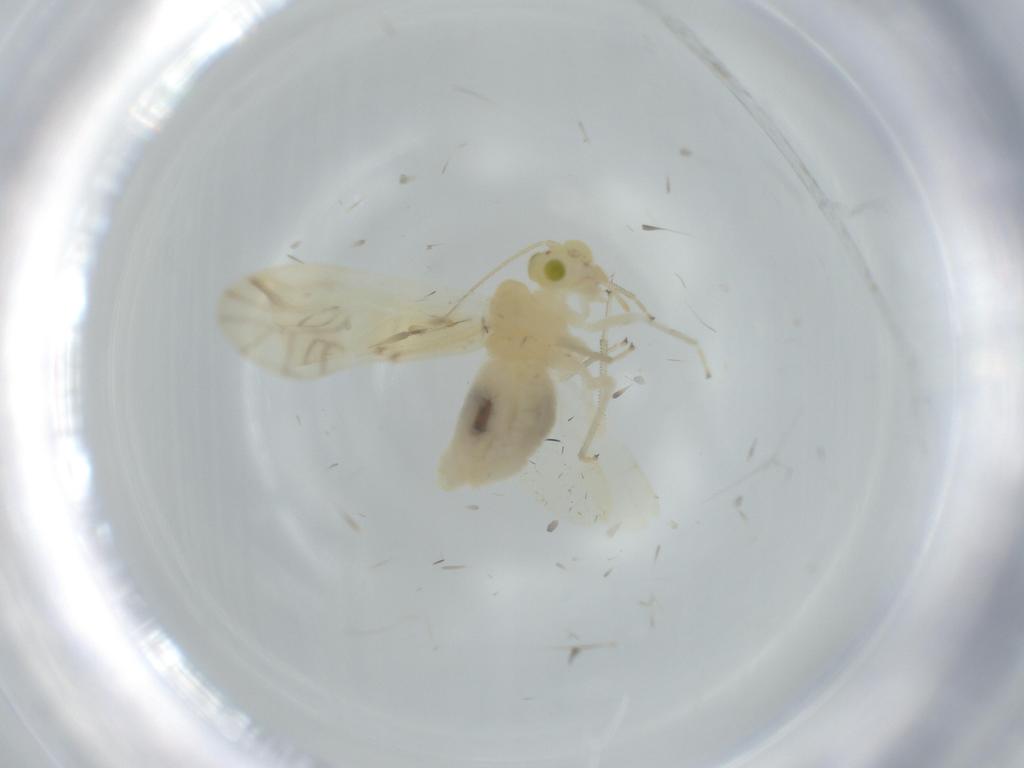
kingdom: Animalia
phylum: Arthropoda
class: Insecta
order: Psocodea
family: Caeciliusidae
